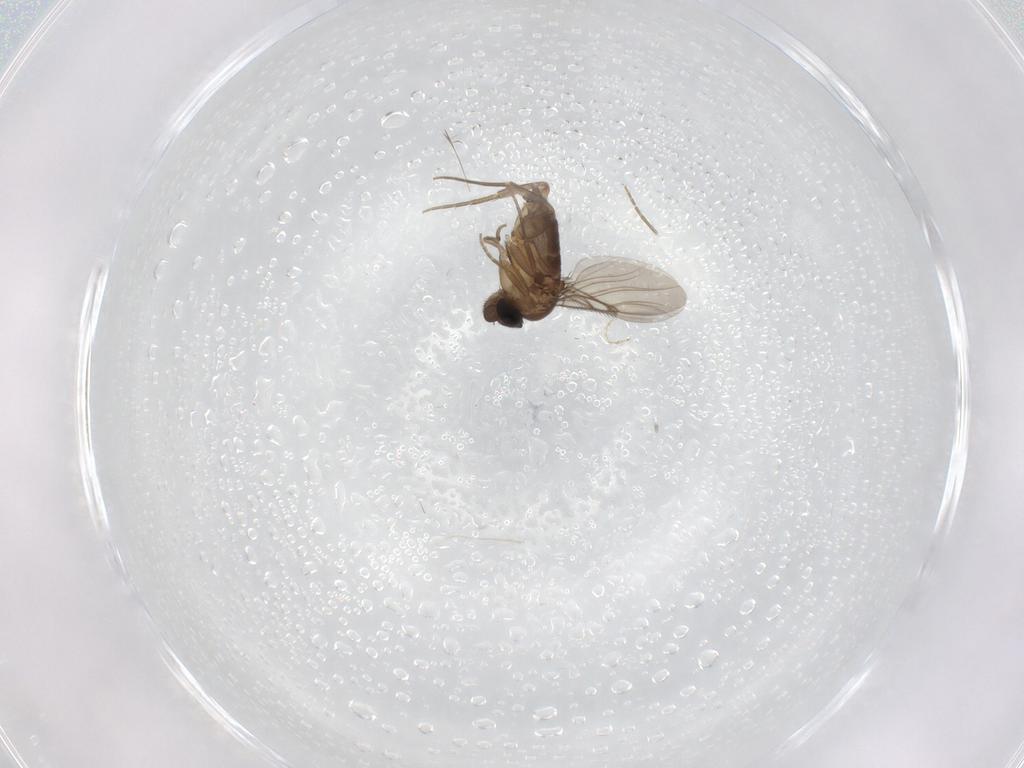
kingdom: Animalia
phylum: Arthropoda
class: Insecta
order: Diptera
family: Phoridae
